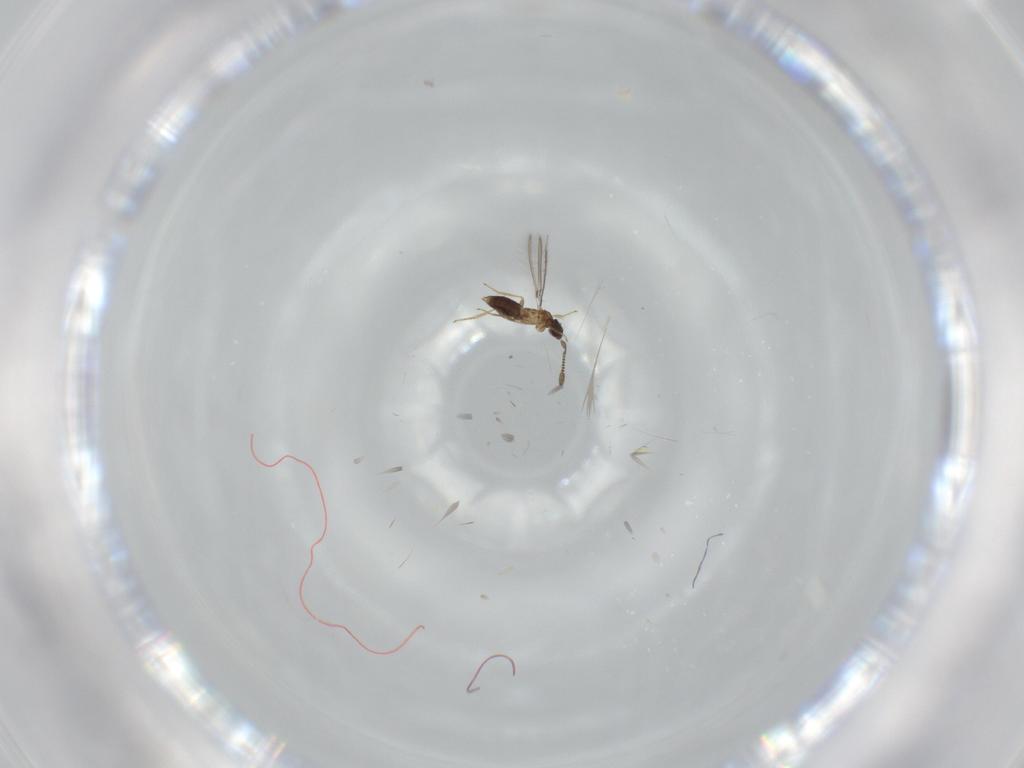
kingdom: Animalia
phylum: Arthropoda
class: Insecta
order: Hymenoptera
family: Mymaridae
